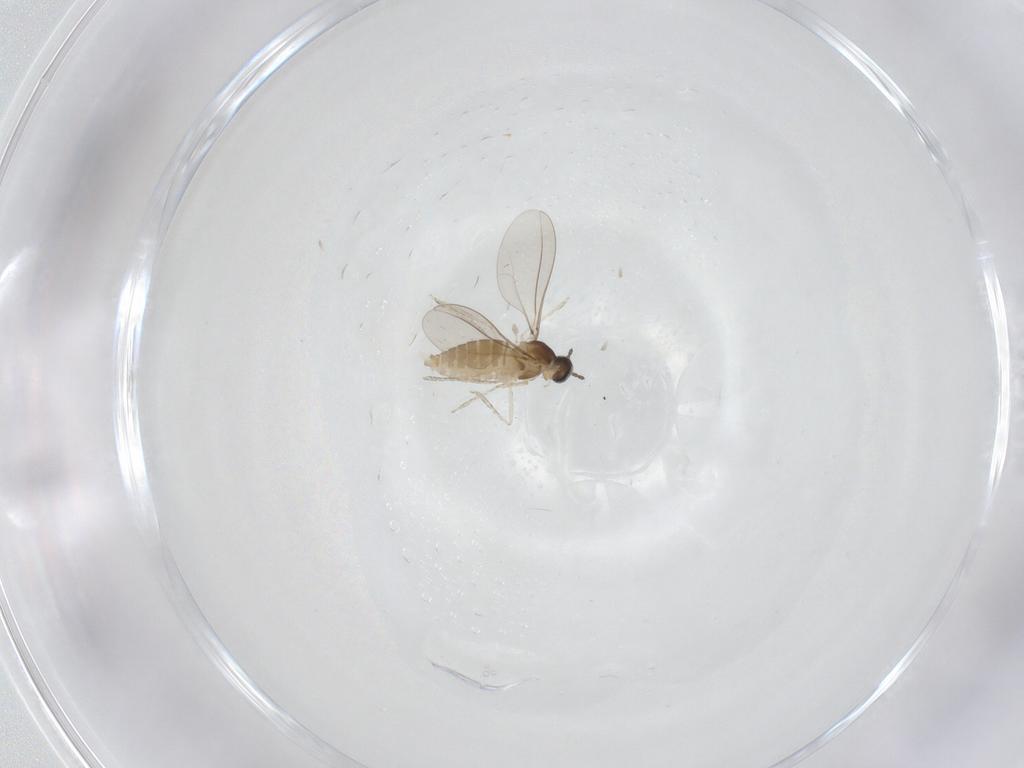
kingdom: Animalia
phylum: Arthropoda
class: Insecta
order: Diptera
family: Cecidomyiidae
